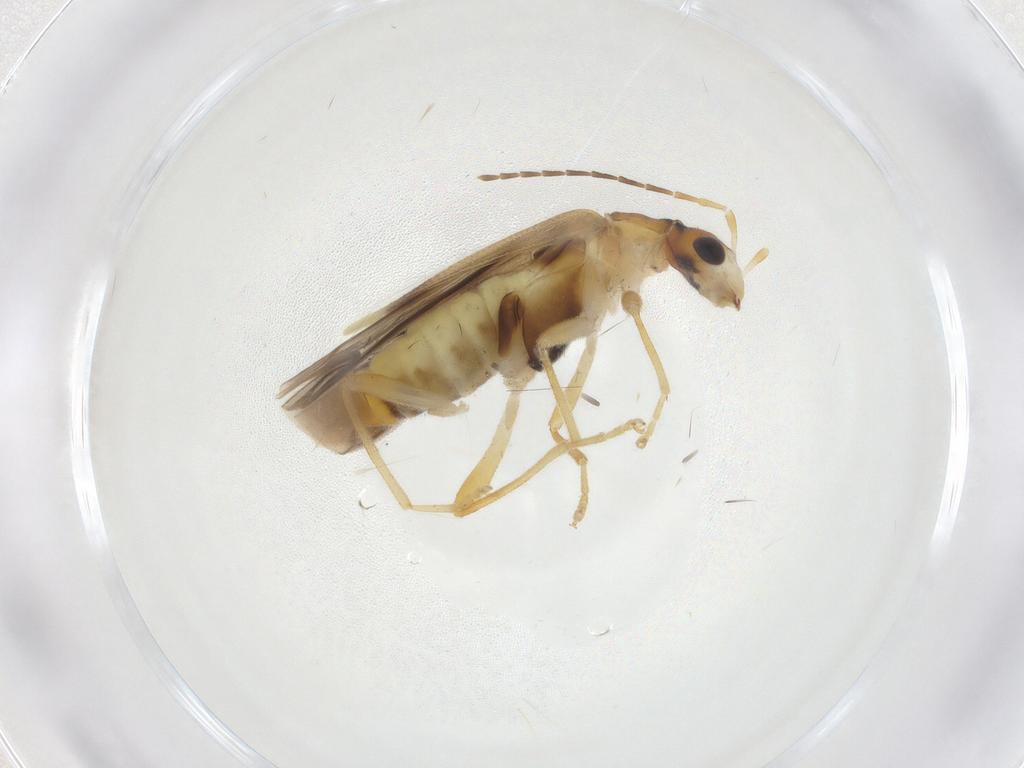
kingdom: Animalia
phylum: Arthropoda
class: Insecta
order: Coleoptera
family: Cantharidae
